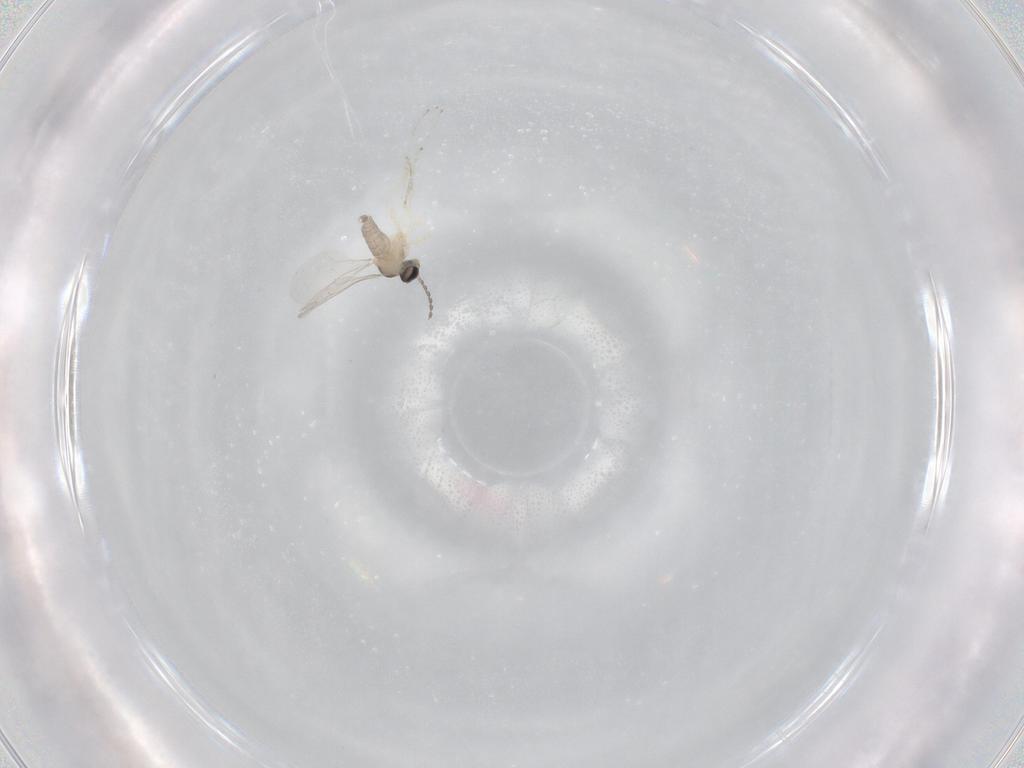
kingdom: Animalia
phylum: Arthropoda
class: Insecta
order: Diptera
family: Cecidomyiidae
